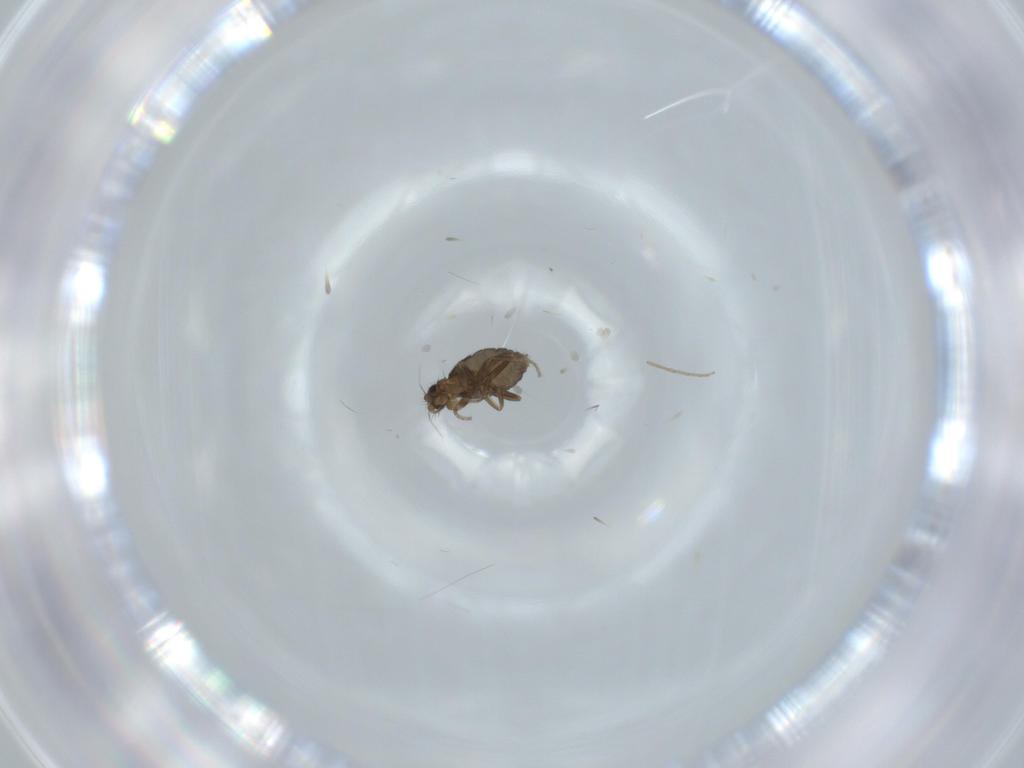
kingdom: Animalia
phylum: Arthropoda
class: Insecta
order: Diptera
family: Phoridae
